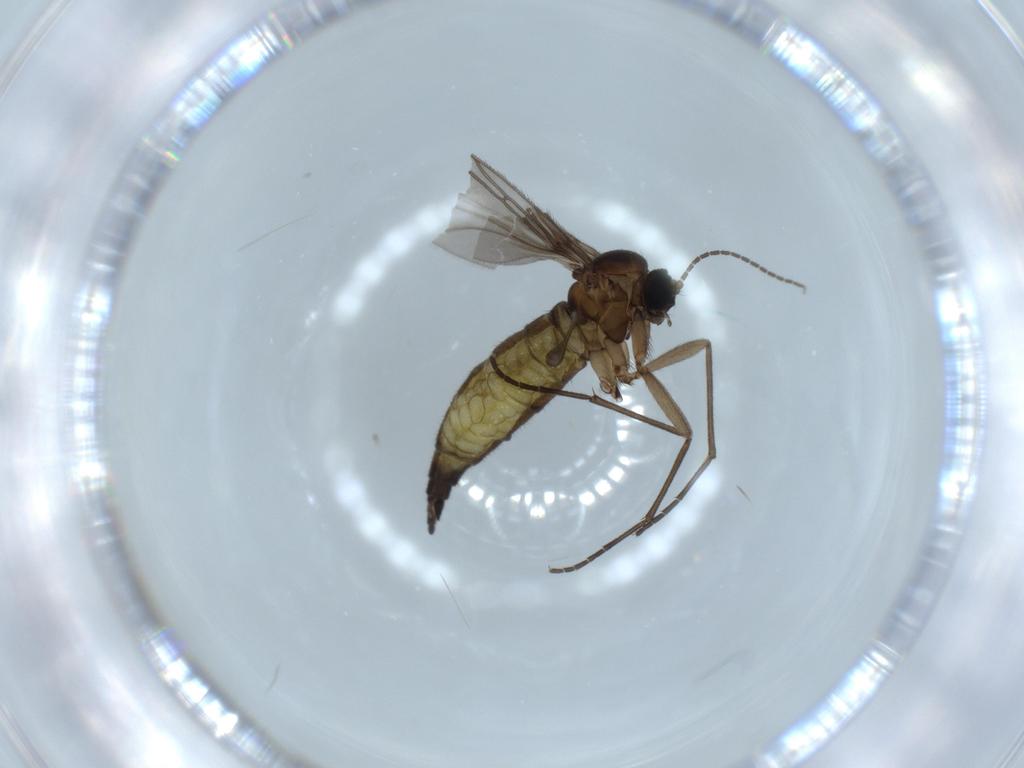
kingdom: Animalia
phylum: Arthropoda
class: Insecta
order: Diptera
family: Sciaridae
